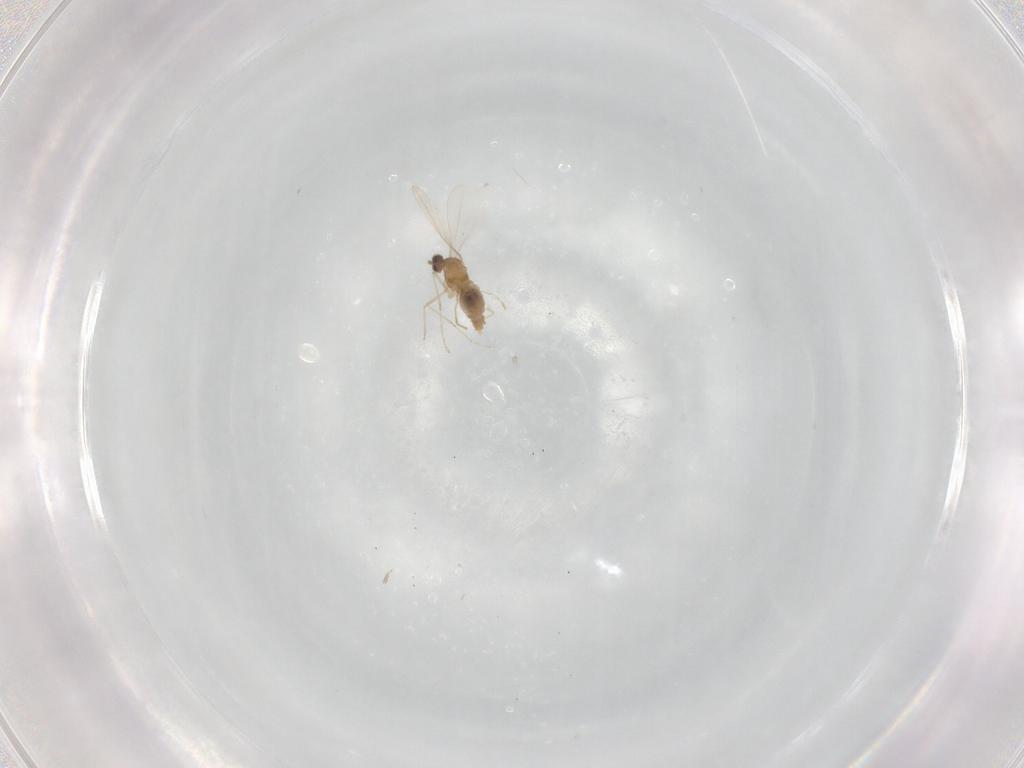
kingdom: Animalia
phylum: Arthropoda
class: Insecta
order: Diptera
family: Cecidomyiidae
